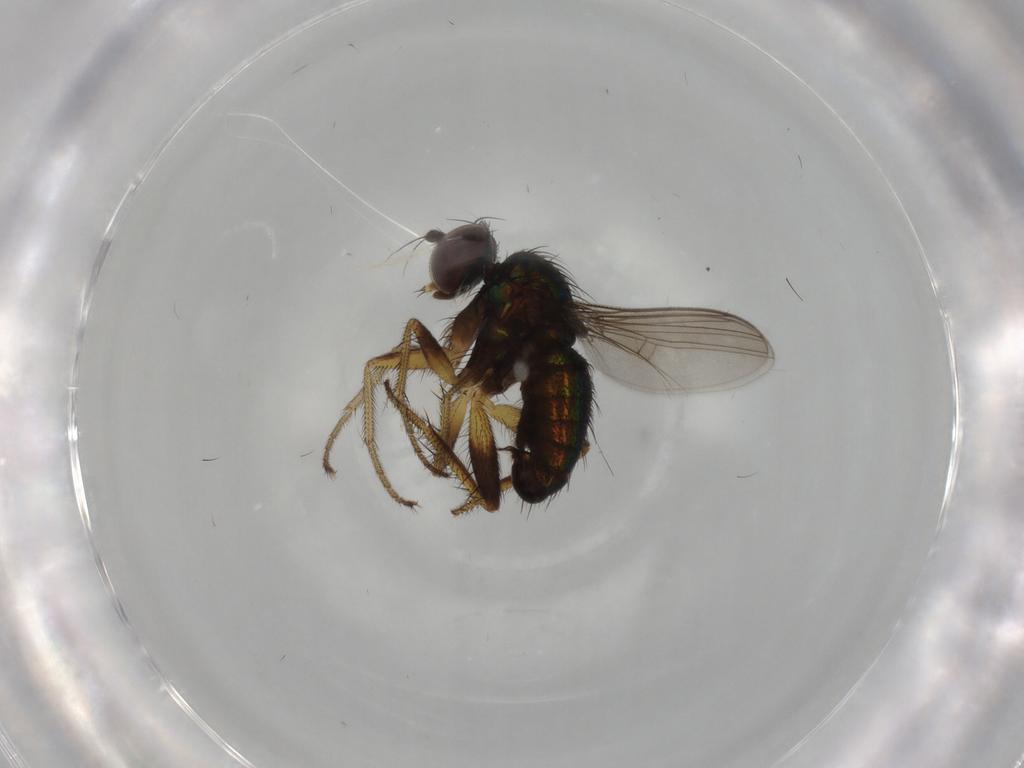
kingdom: Animalia
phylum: Arthropoda
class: Insecta
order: Diptera
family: Dolichopodidae
